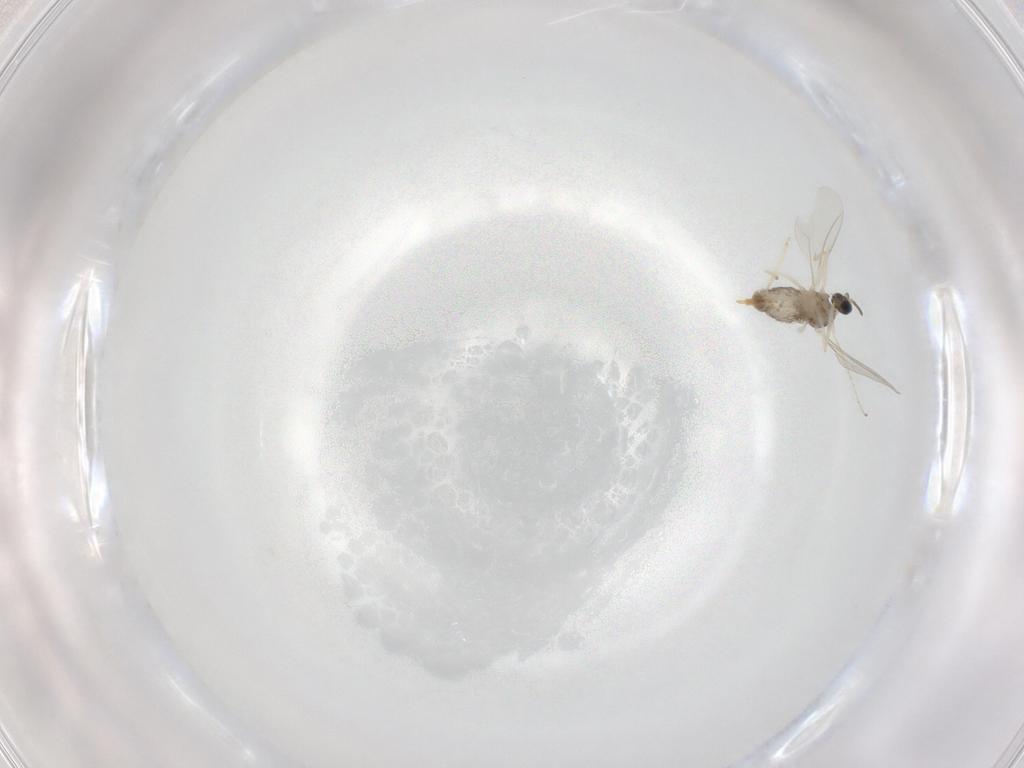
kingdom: Animalia
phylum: Arthropoda
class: Insecta
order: Diptera
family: Cecidomyiidae
